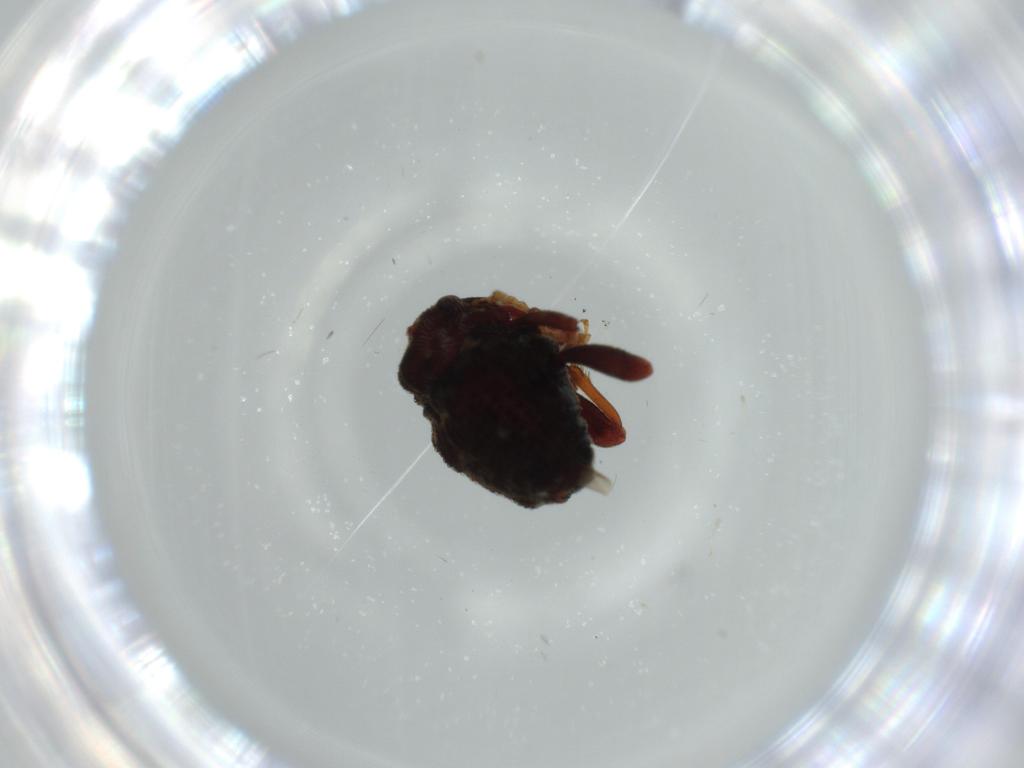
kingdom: Animalia
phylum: Arthropoda
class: Insecta
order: Coleoptera
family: Curculionidae
